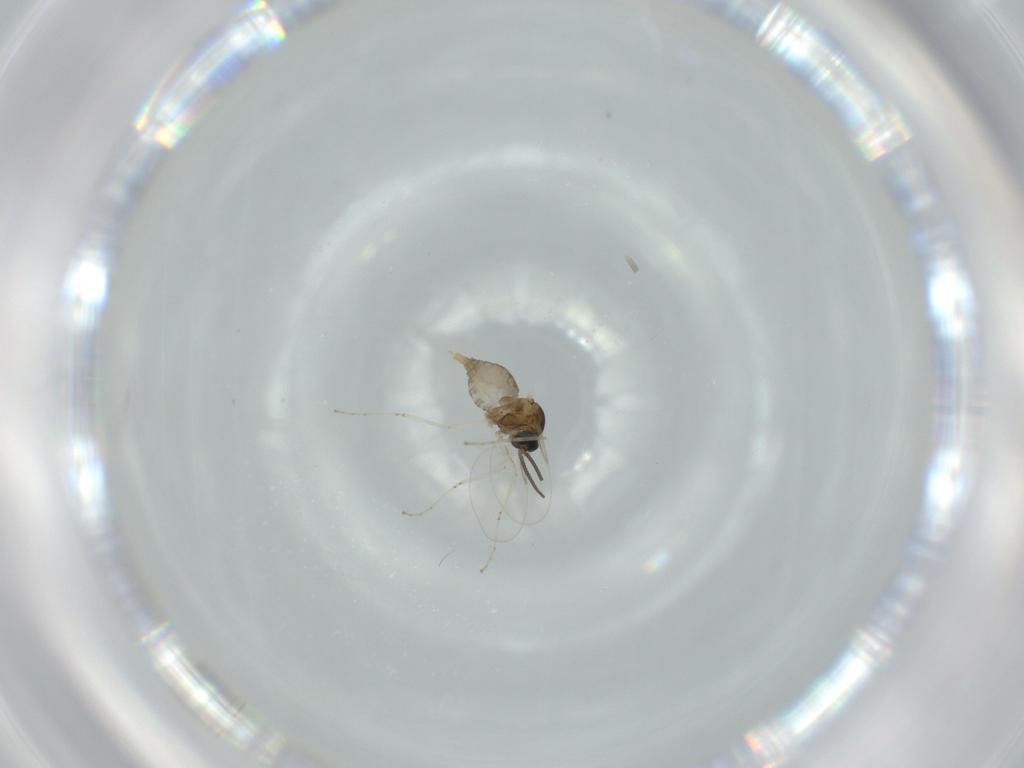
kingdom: Animalia
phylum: Arthropoda
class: Insecta
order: Diptera
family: Cecidomyiidae
